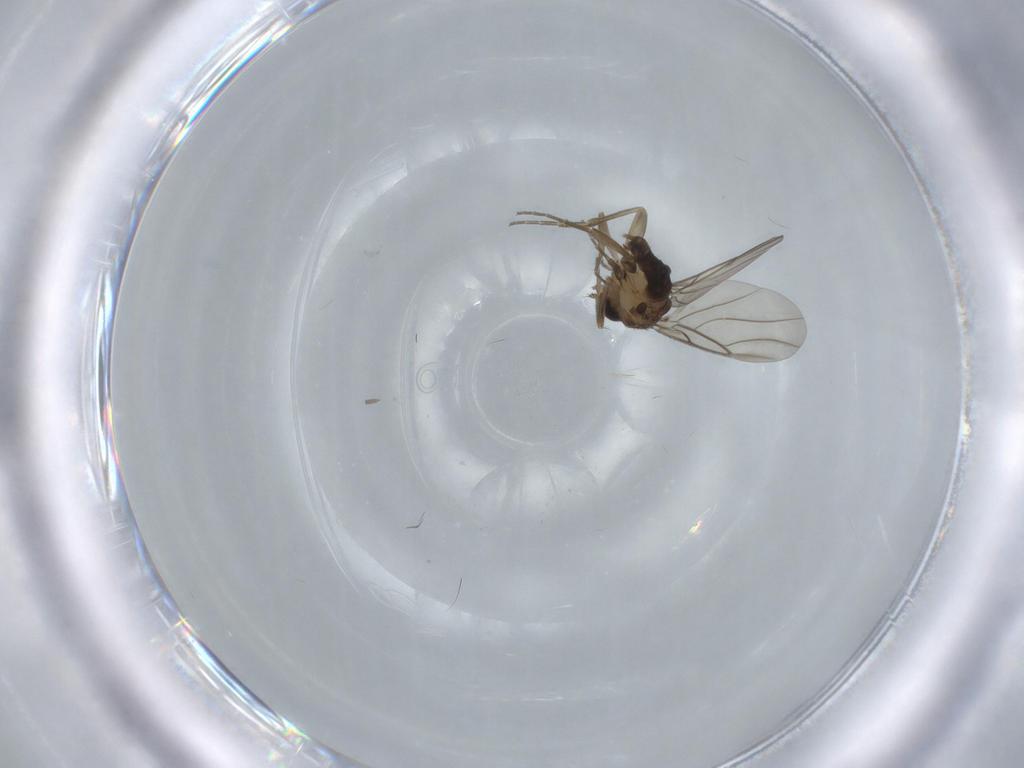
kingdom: Animalia
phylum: Arthropoda
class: Insecta
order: Diptera
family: Phoridae
